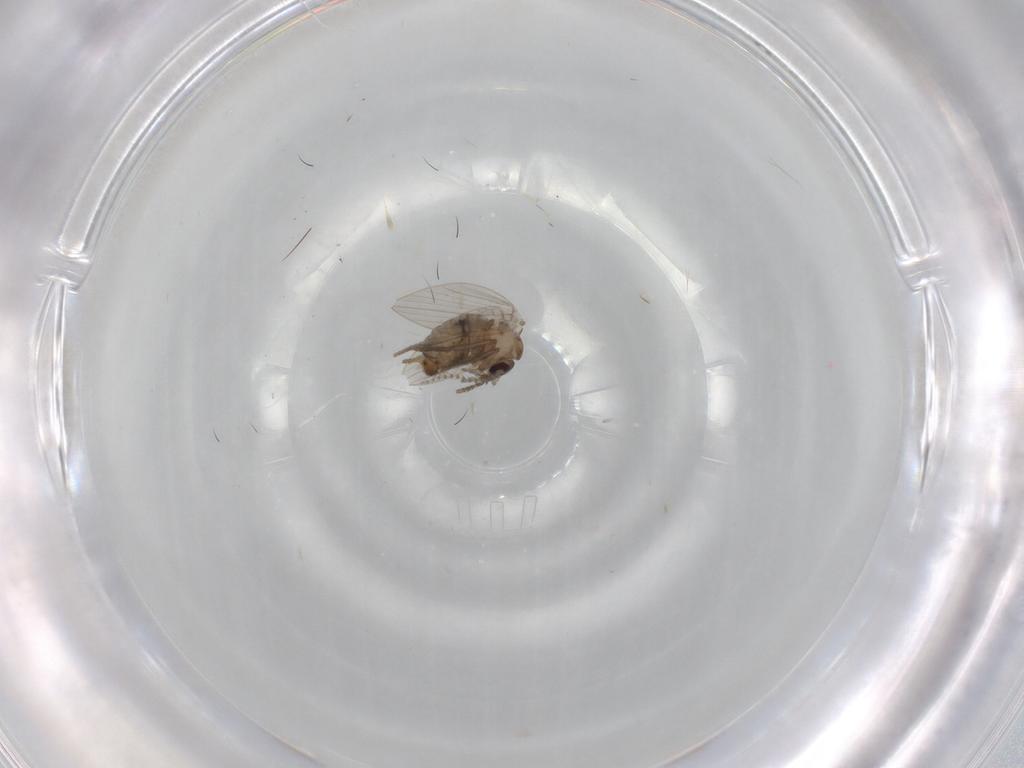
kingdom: Animalia
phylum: Arthropoda
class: Insecta
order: Diptera
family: Psychodidae
